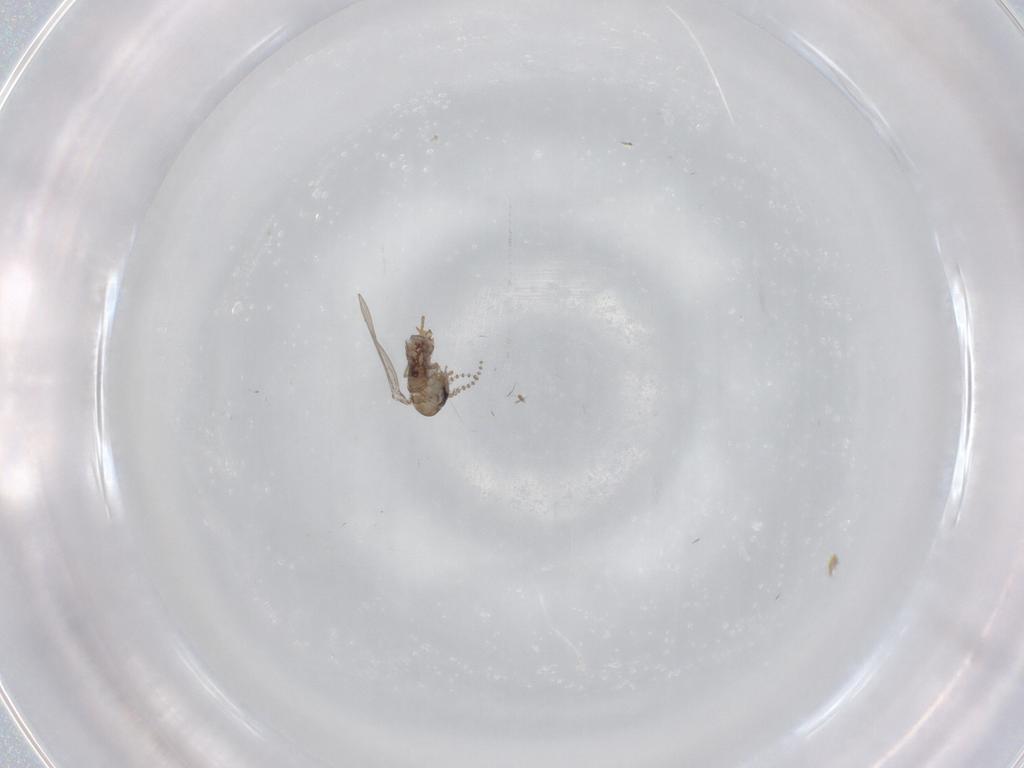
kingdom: Animalia
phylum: Arthropoda
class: Insecta
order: Diptera
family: Psychodidae
